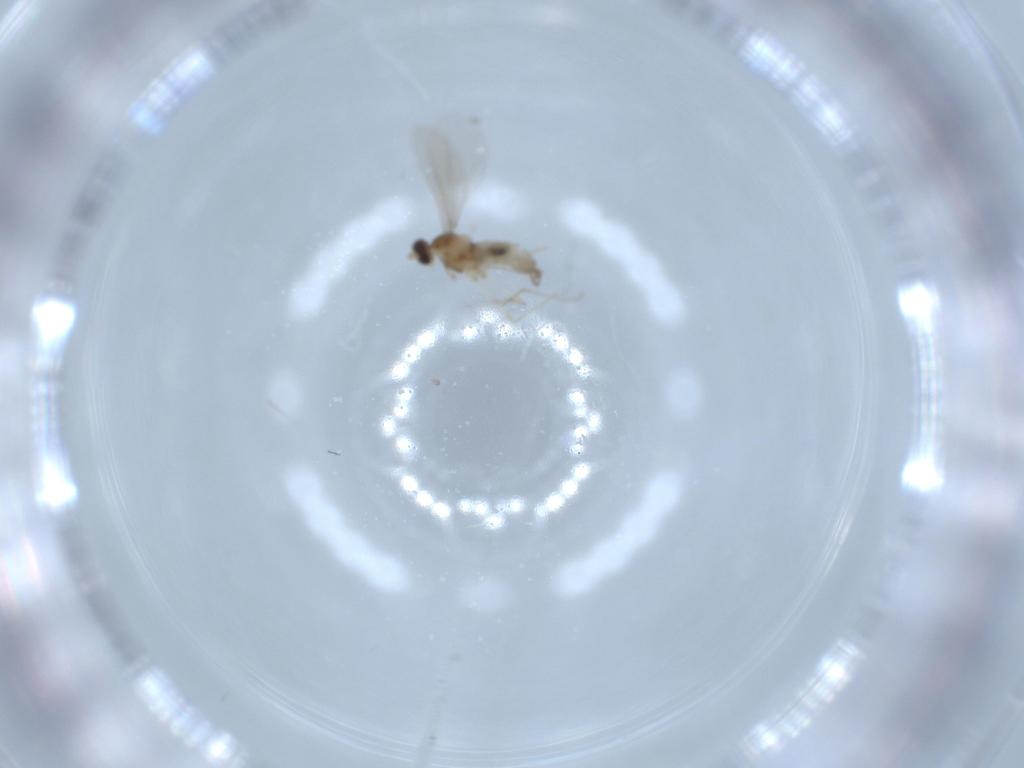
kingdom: Animalia
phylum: Arthropoda
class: Insecta
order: Diptera
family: Cecidomyiidae
